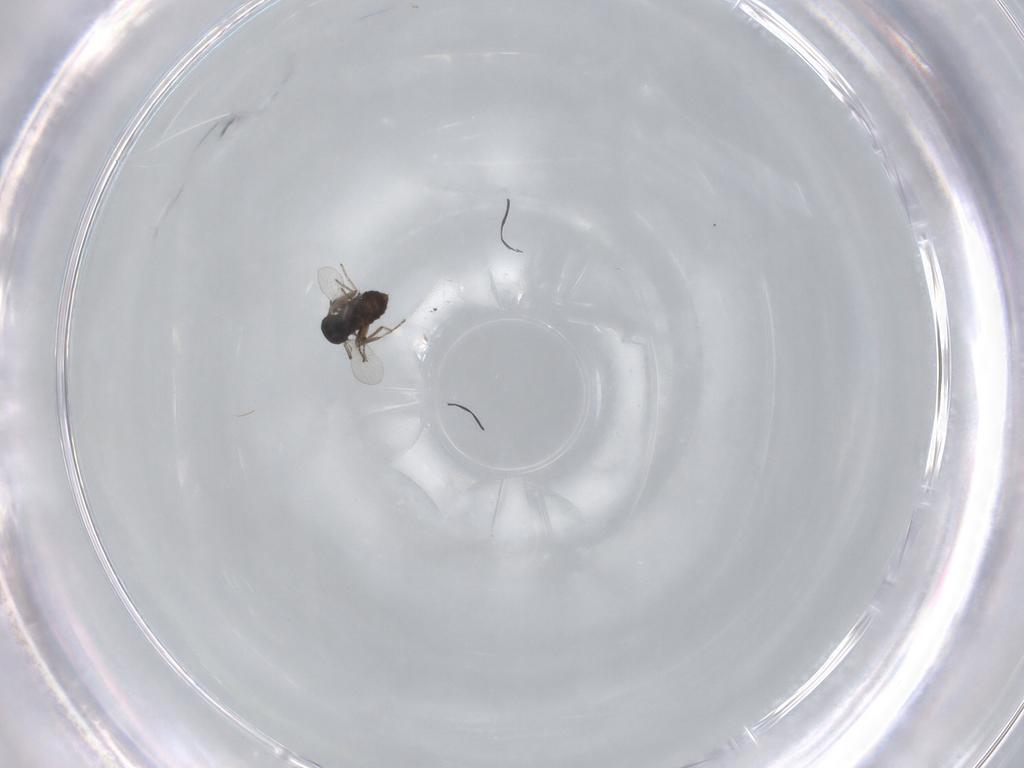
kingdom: Animalia
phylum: Arthropoda
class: Insecta
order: Diptera
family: Ceratopogonidae
